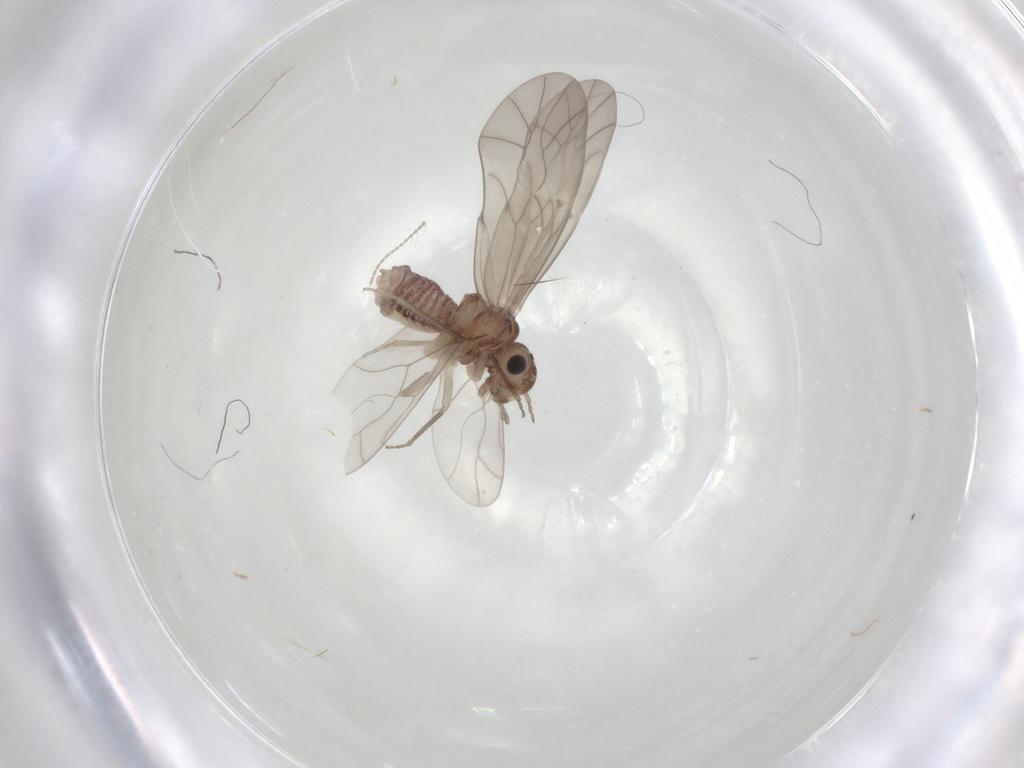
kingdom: Animalia
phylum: Arthropoda
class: Insecta
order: Diptera
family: Ceratopogonidae
